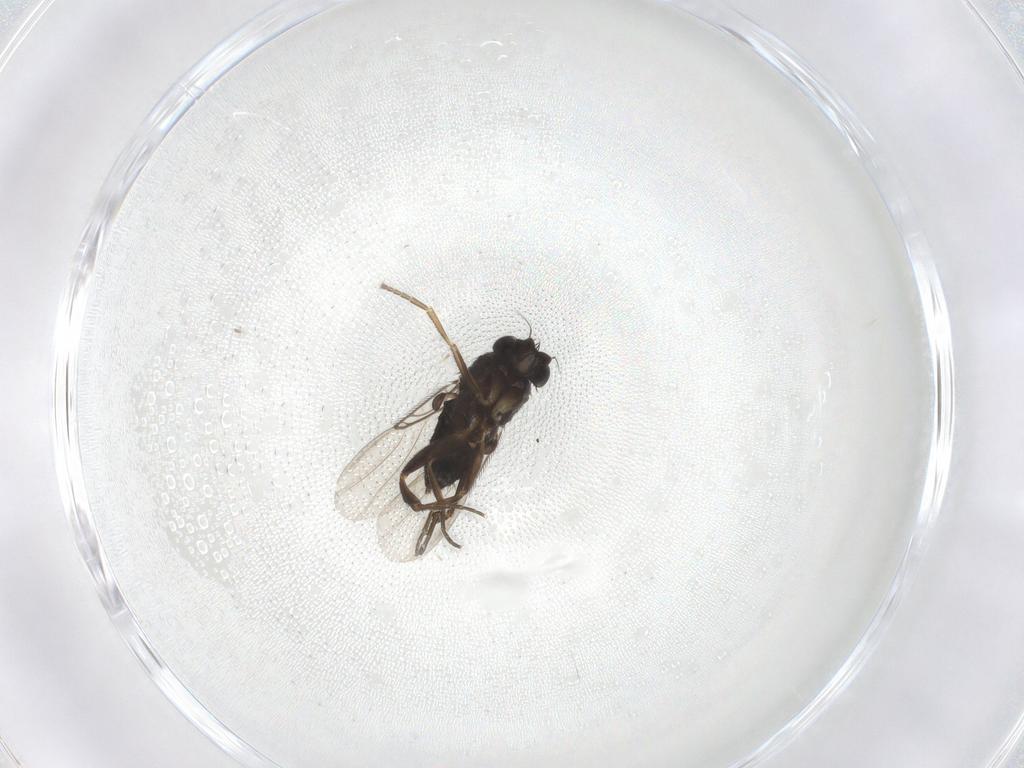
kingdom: Animalia
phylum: Arthropoda
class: Insecta
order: Diptera
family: Phoridae
